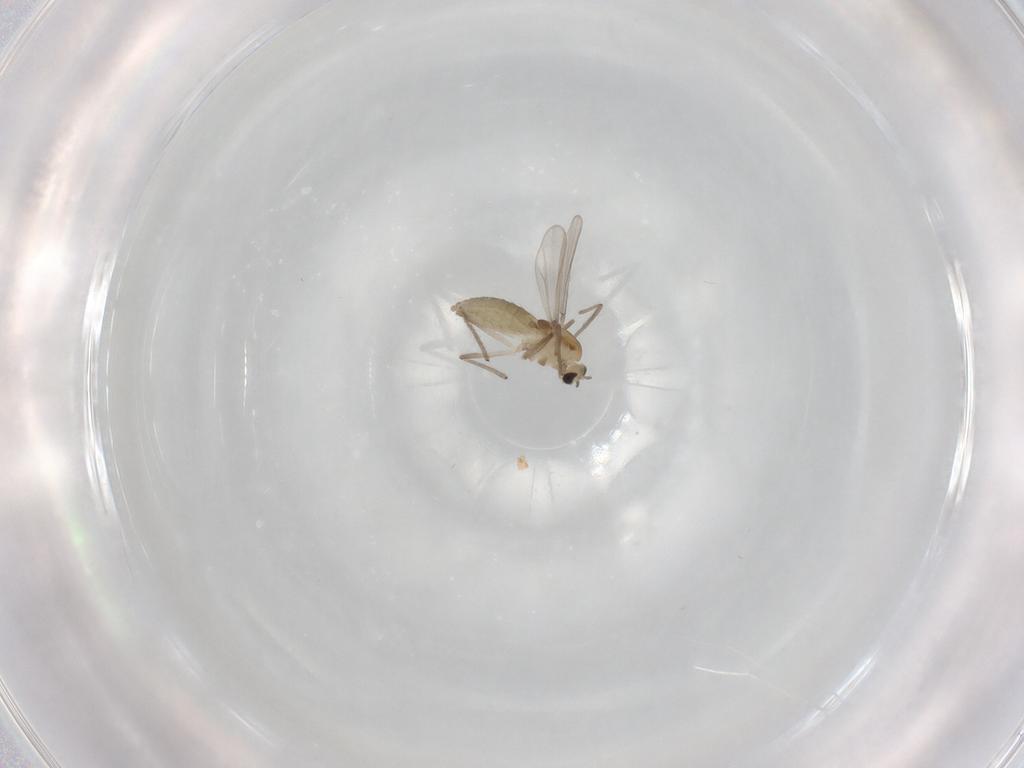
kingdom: Animalia
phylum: Arthropoda
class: Insecta
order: Diptera
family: Chironomidae
